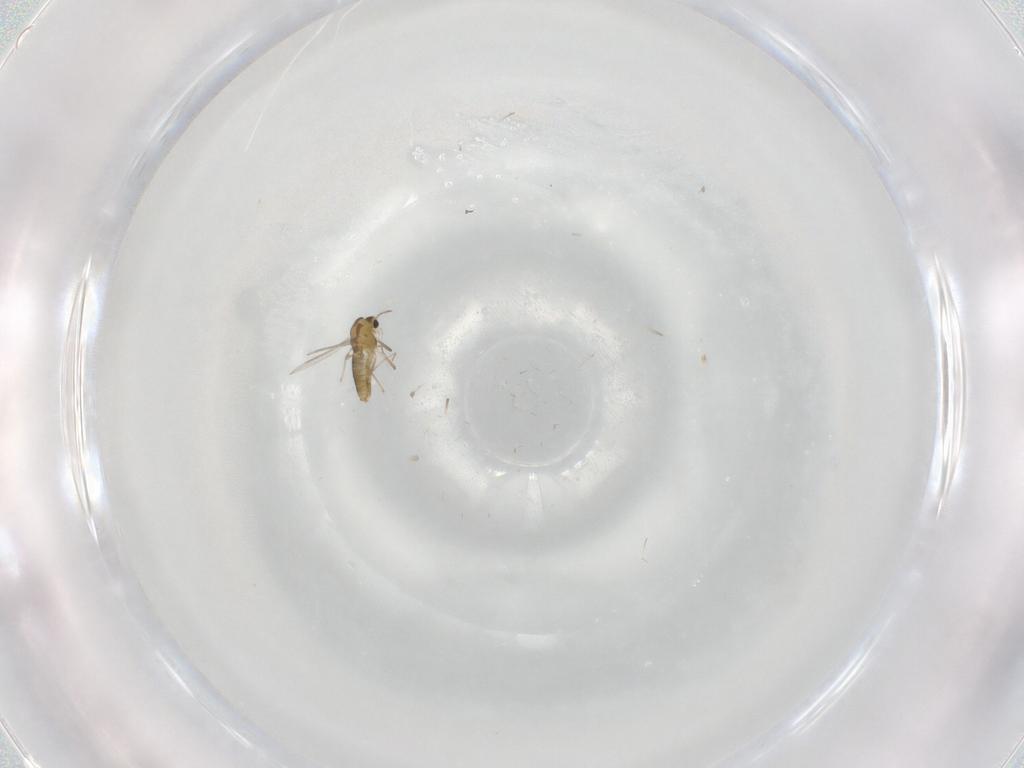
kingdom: Animalia
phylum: Arthropoda
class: Insecta
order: Diptera
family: Chironomidae
